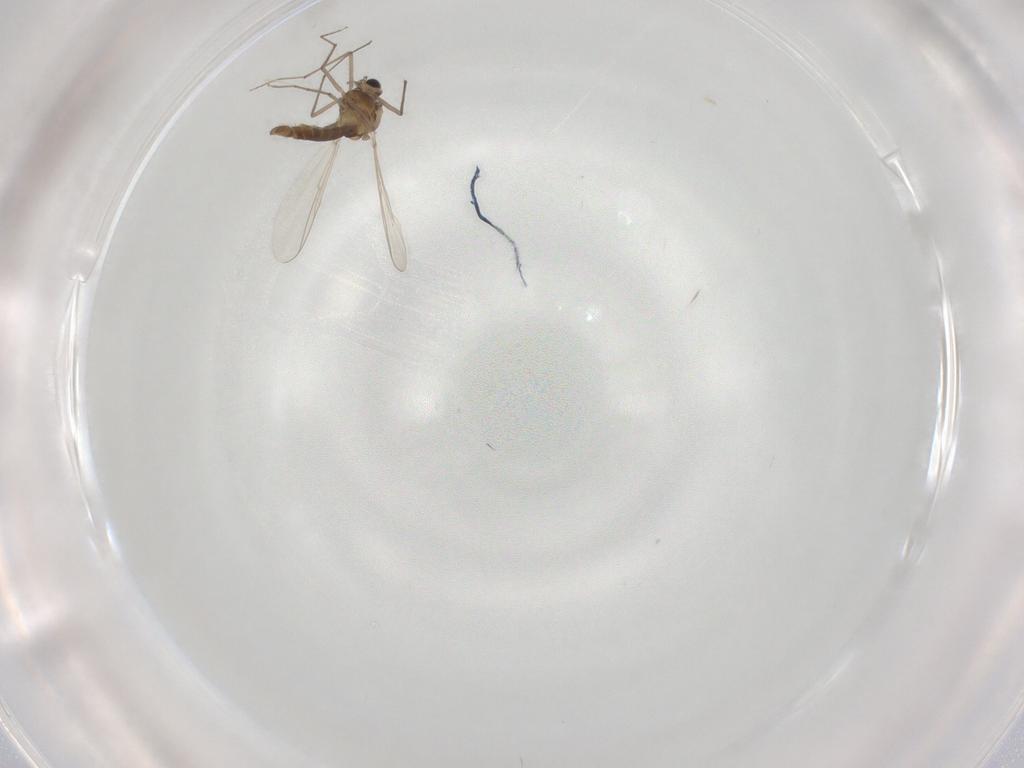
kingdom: Animalia
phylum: Arthropoda
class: Insecta
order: Diptera
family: Chironomidae
